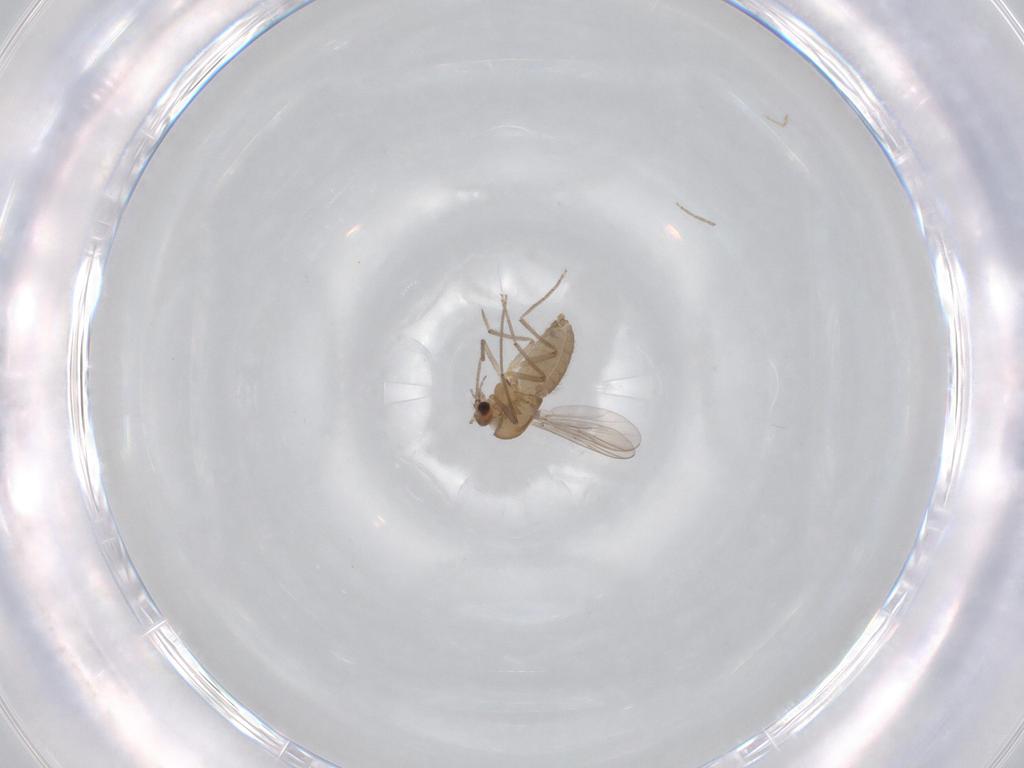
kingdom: Animalia
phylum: Arthropoda
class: Insecta
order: Diptera
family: Chironomidae
